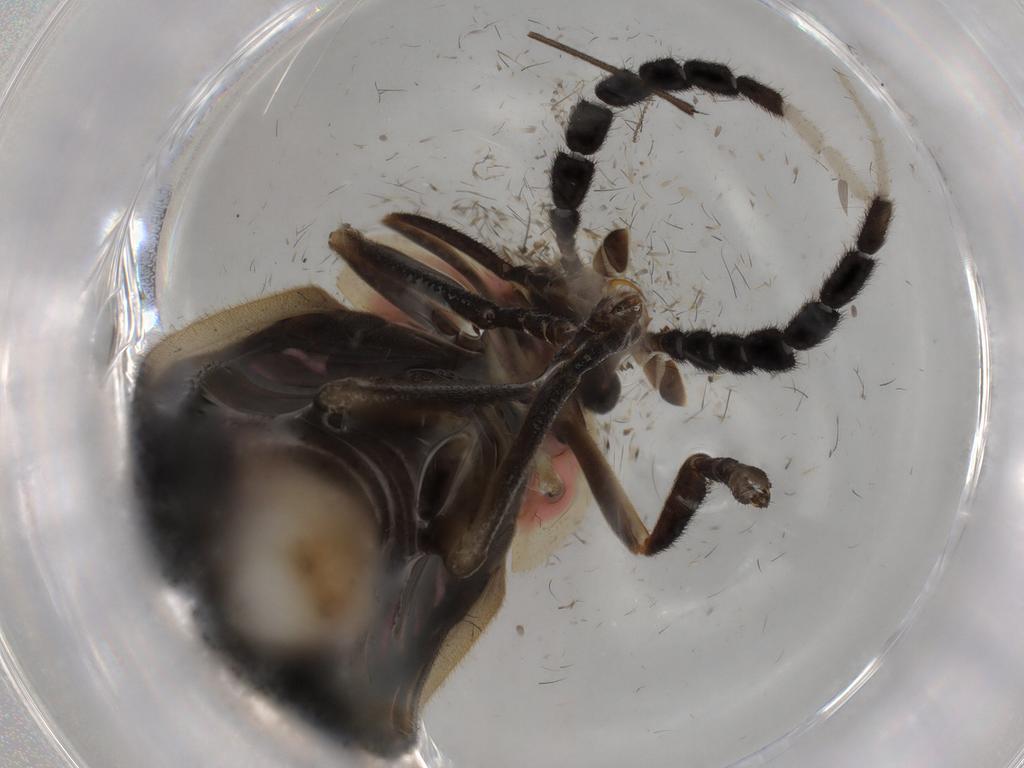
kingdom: Animalia
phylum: Arthropoda
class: Insecta
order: Coleoptera
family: Lampyridae
